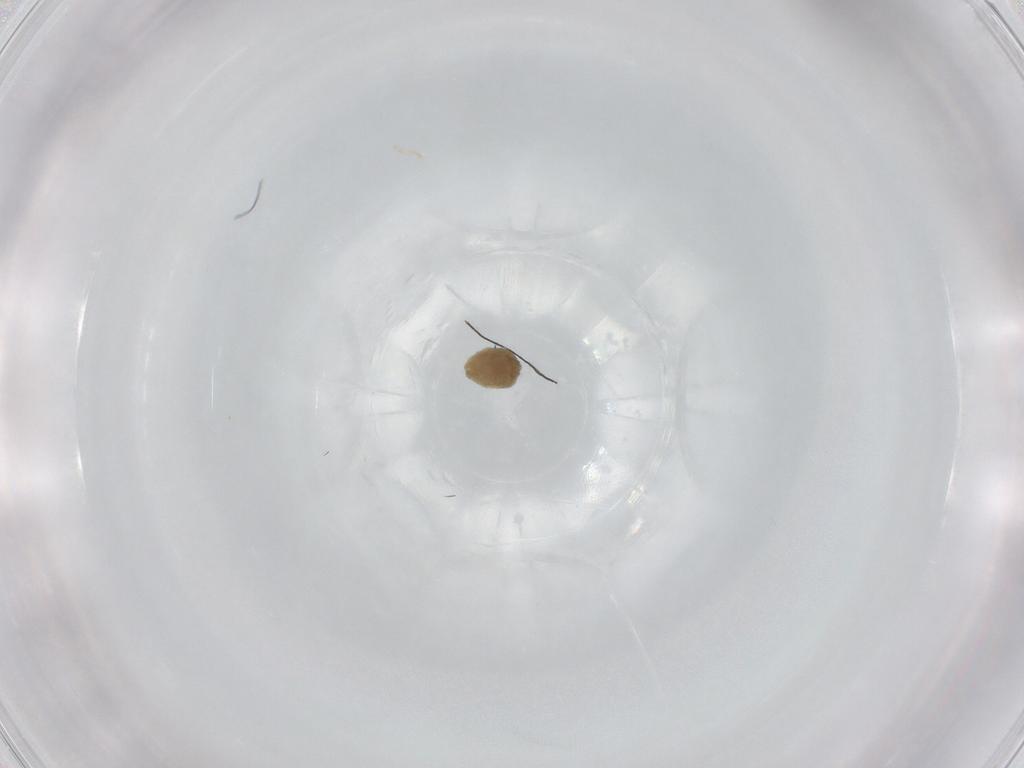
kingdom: Animalia
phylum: Arthropoda
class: Arachnida
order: Araneae
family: Linyphiidae
